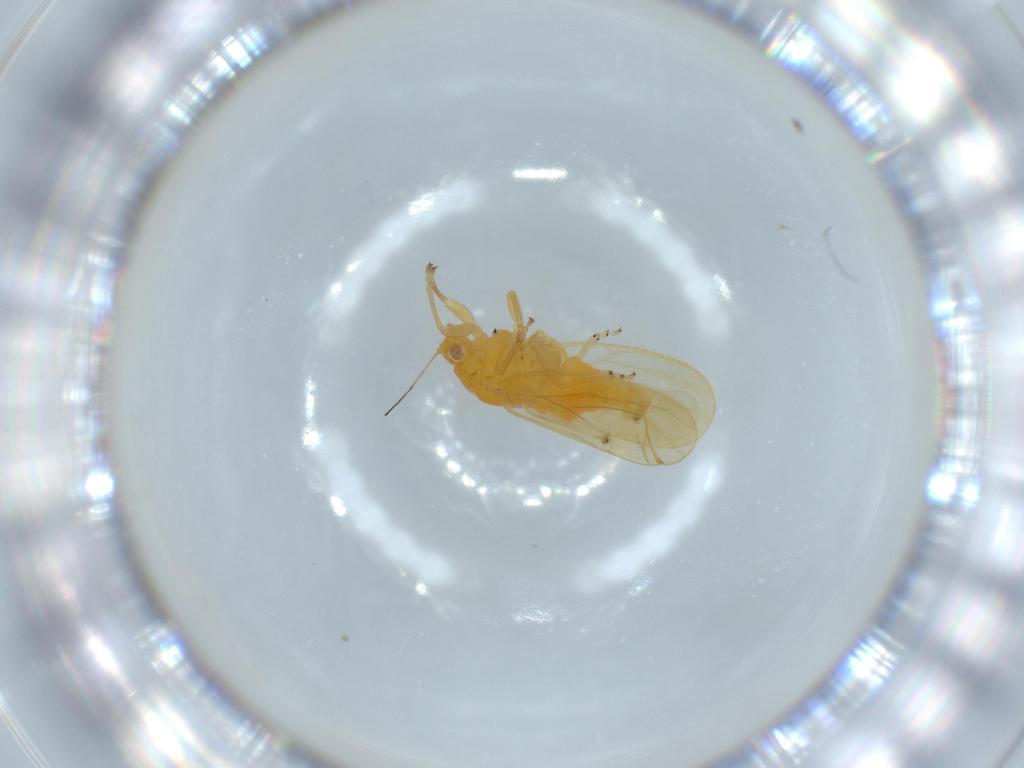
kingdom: Animalia
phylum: Arthropoda
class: Insecta
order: Hemiptera
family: Psyllidae
